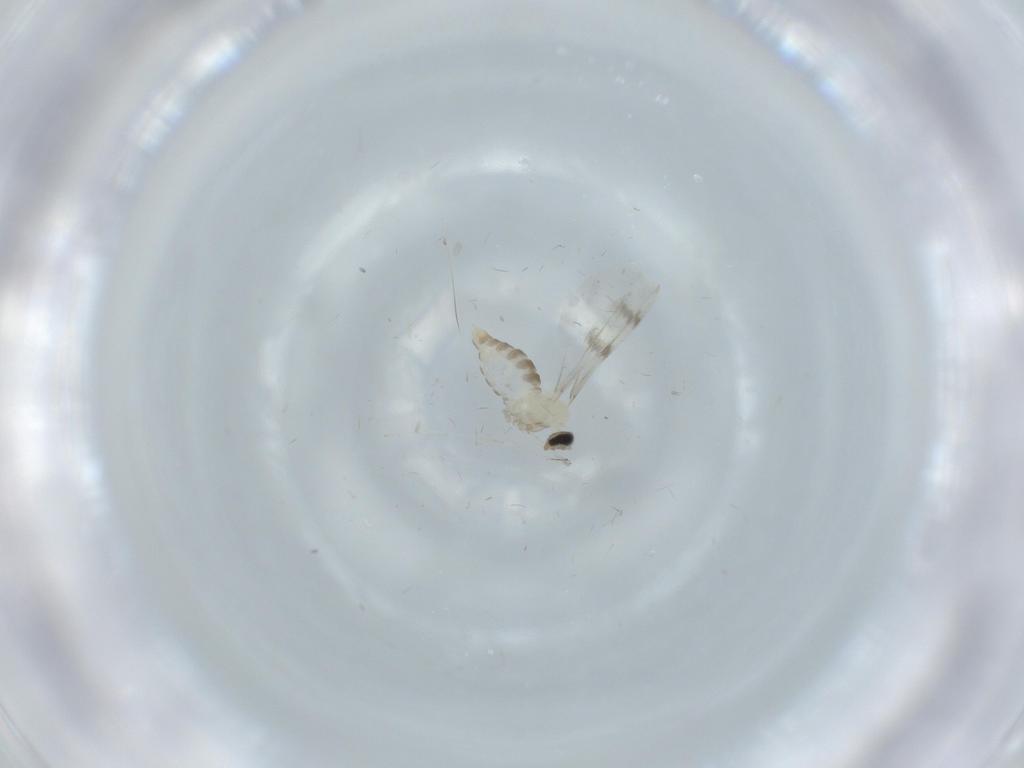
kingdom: Animalia
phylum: Arthropoda
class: Insecta
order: Diptera
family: Cecidomyiidae
